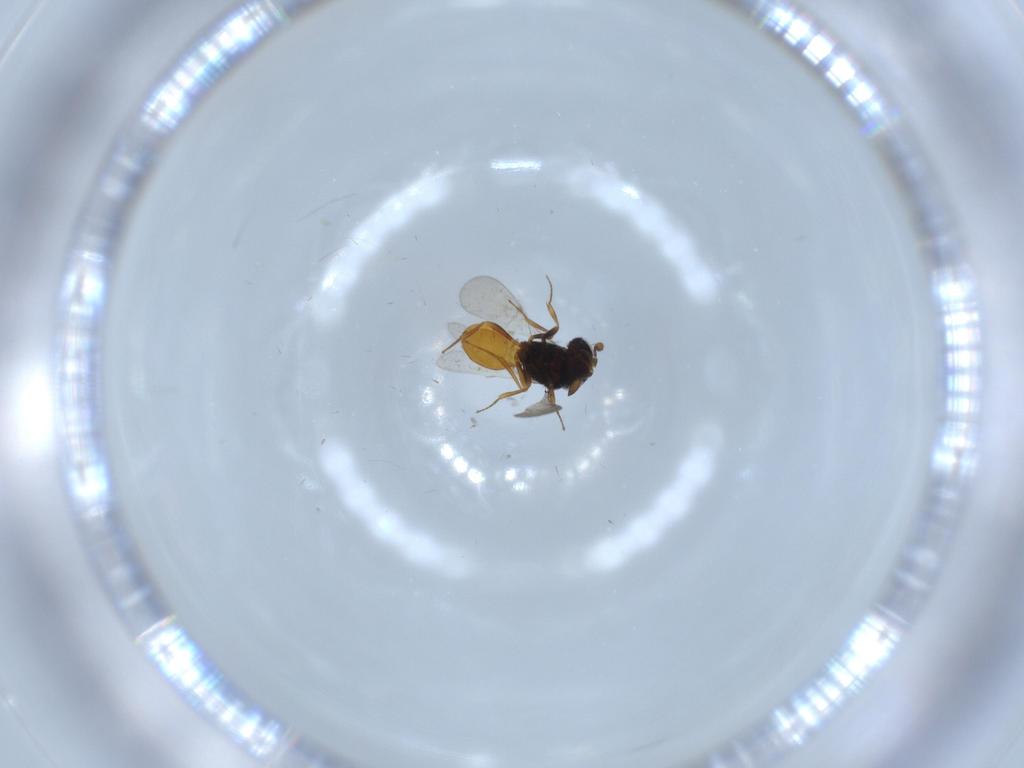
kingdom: Animalia
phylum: Arthropoda
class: Insecta
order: Hymenoptera
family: Scelionidae
